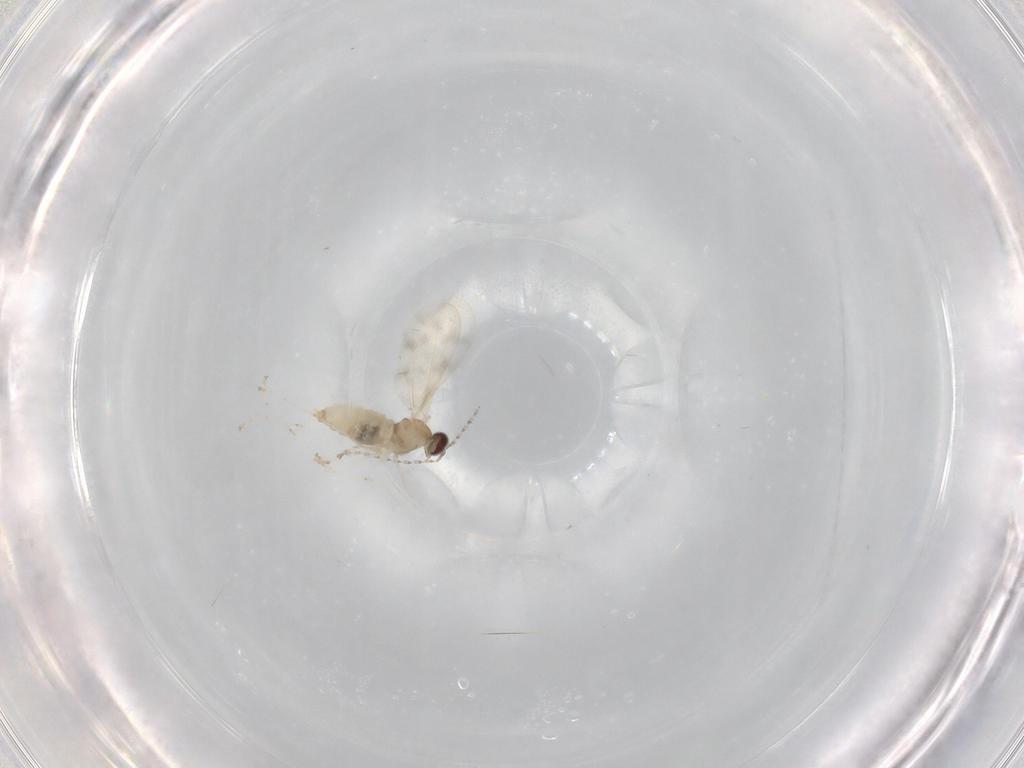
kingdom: Animalia
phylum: Arthropoda
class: Insecta
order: Diptera
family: Cecidomyiidae
